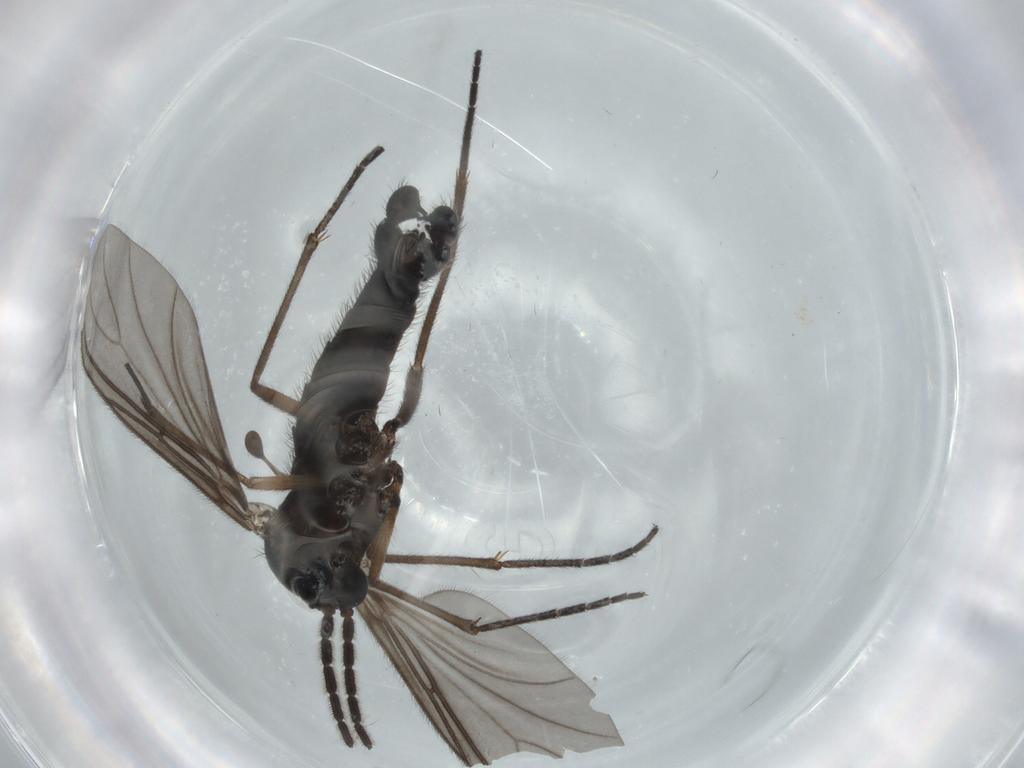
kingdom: Animalia
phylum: Arthropoda
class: Insecta
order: Diptera
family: Sciaridae
